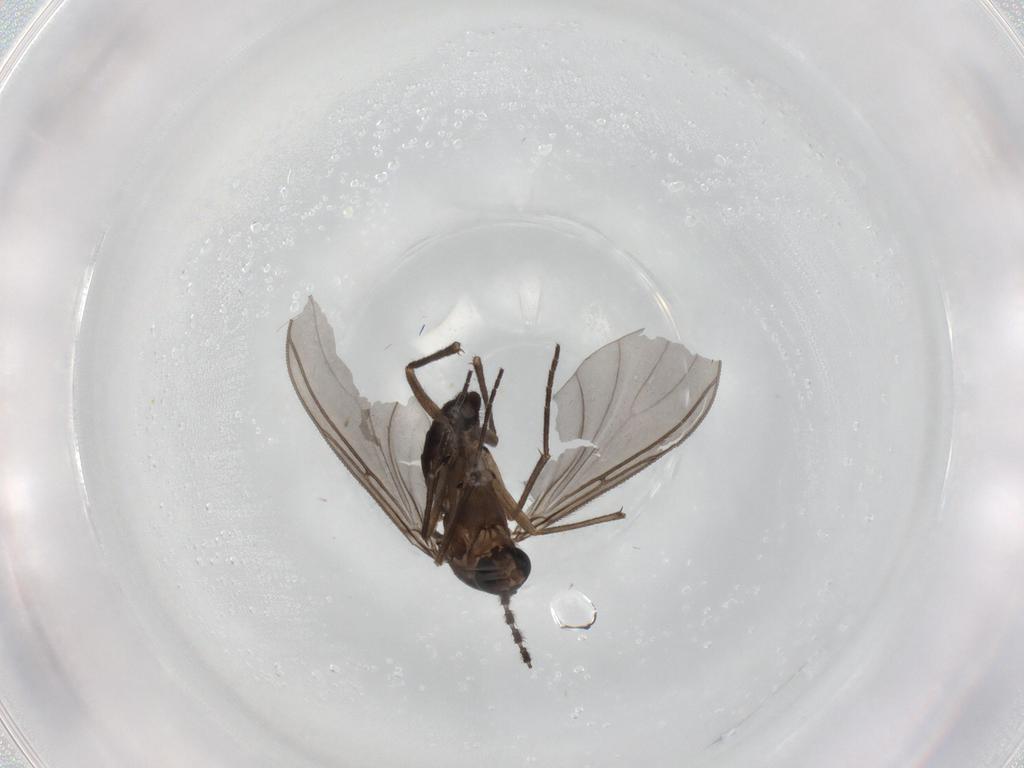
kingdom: Animalia
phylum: Arthropoda
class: Insecta
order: Diptera
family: Sciaridae
